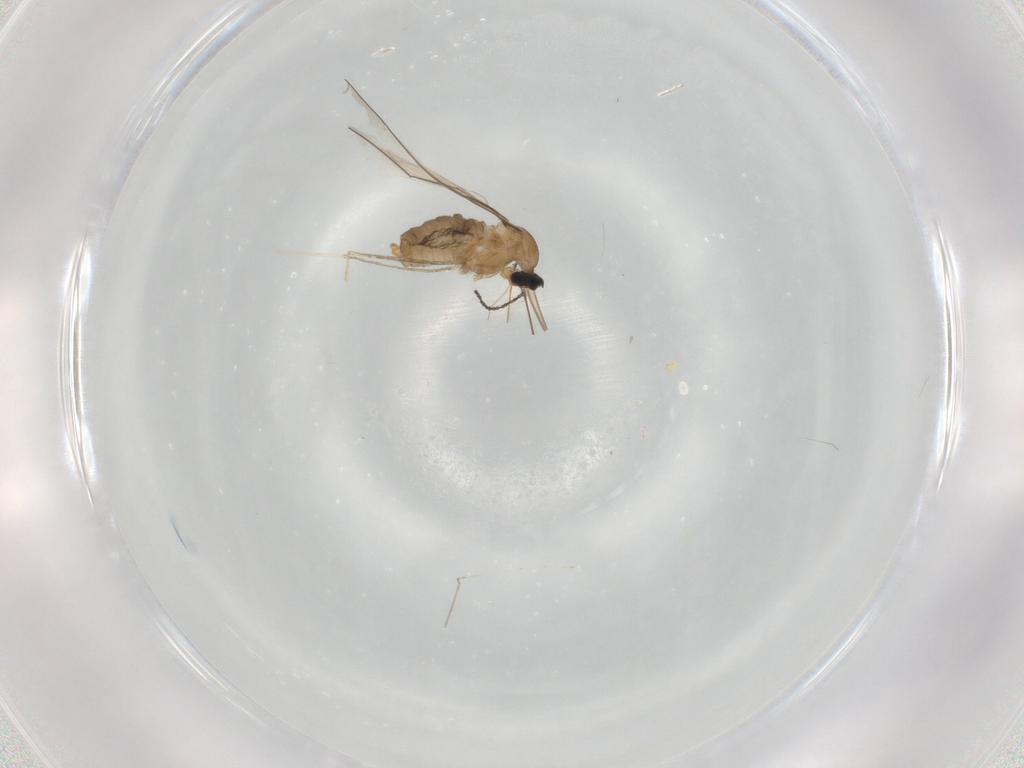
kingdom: Animalia
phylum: Arthropoda
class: Insecta
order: Diptera
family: Cecidomyiidae
